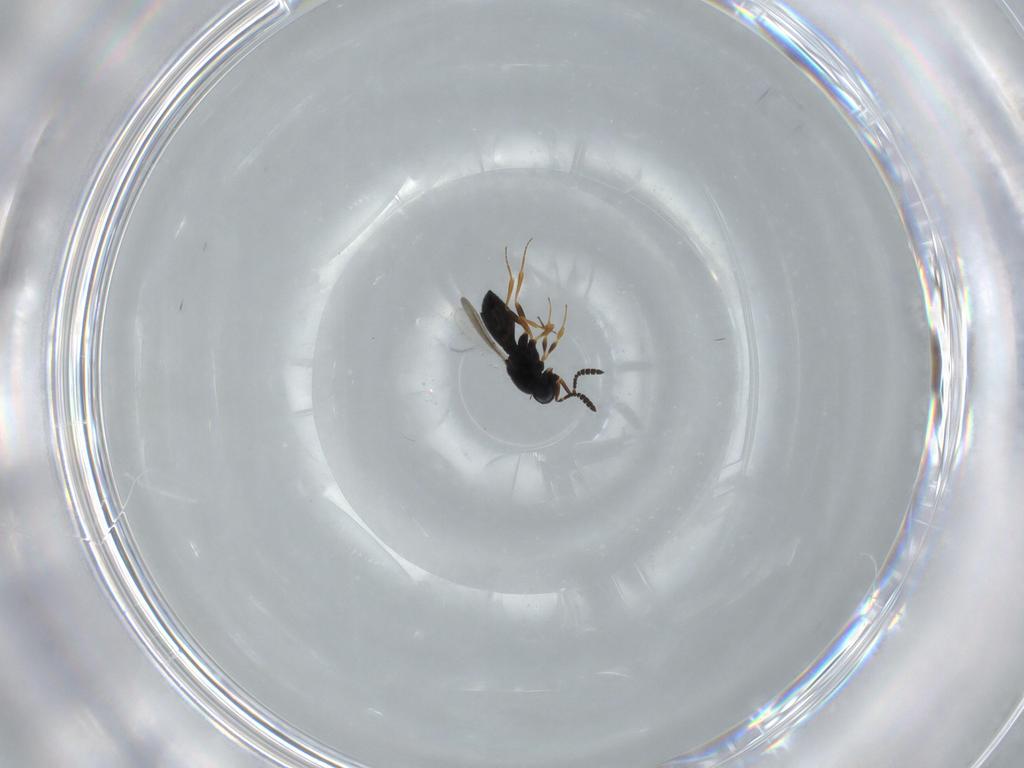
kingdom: Animalia
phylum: Arthropoda
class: Insecta
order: Hymenoptera
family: Scelionidae
